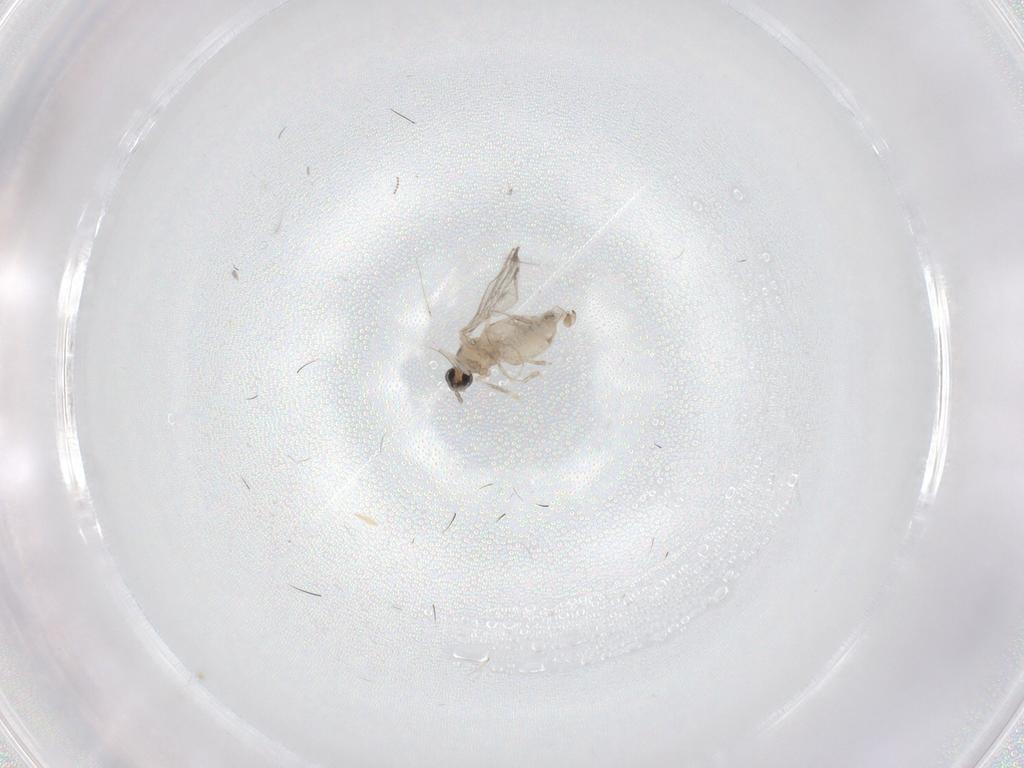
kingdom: Animalia
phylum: Arthropoda
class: Insecta
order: Diptera
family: Cecidomyiidae
